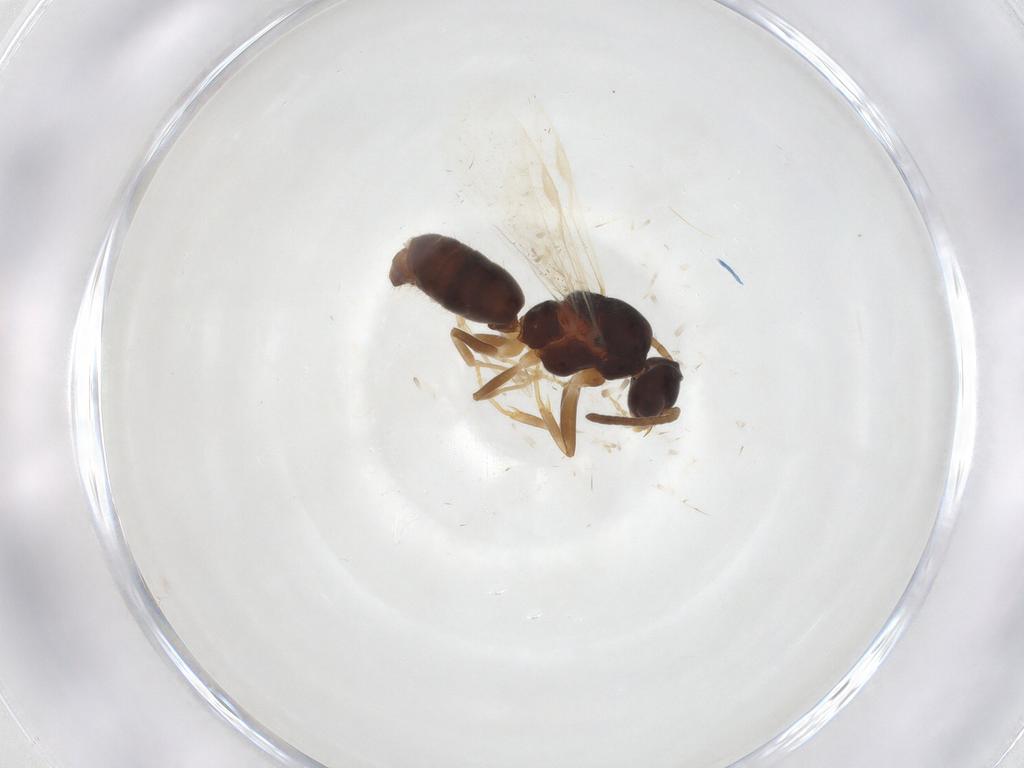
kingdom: Animalia
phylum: Arthropoda
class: Insecta
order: Hymenoptera
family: Formicidae
